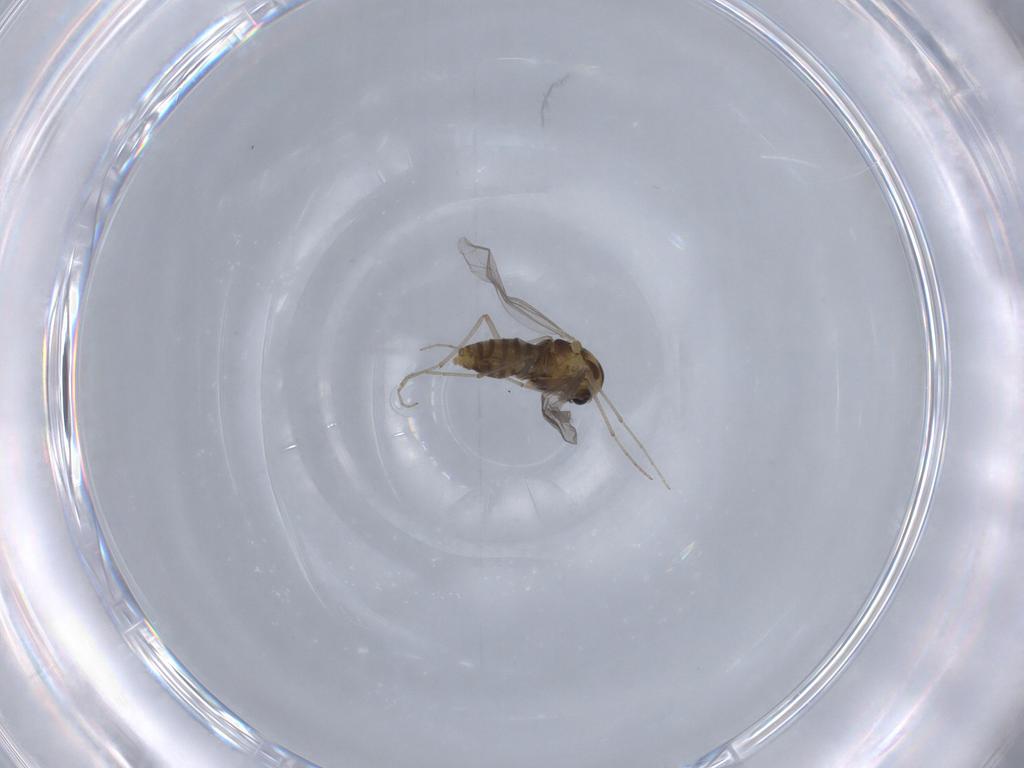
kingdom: Animalia
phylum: Arthropoda
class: Insecta
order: Diptera
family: Chironomidae
